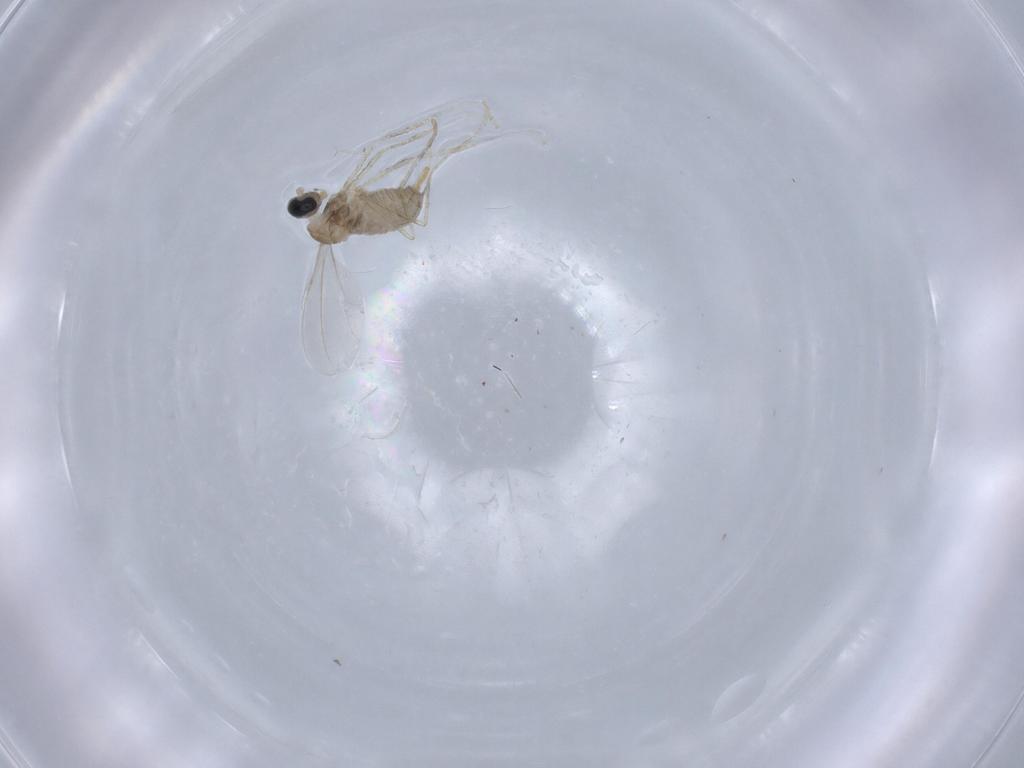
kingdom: Animalia
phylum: Arthropoda
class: Insecta
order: Diptera
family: Cecidomyiidae
